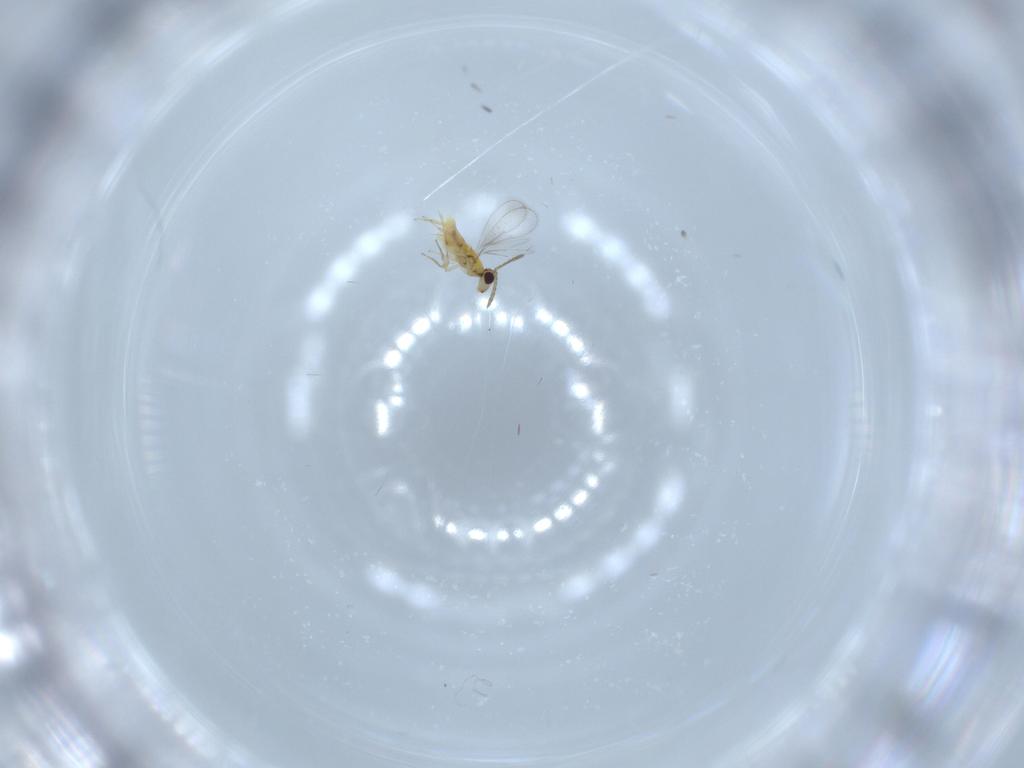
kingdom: Animalia
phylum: Arthropoda
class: Insecta
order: Hymenoptera
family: Aphelinidae
